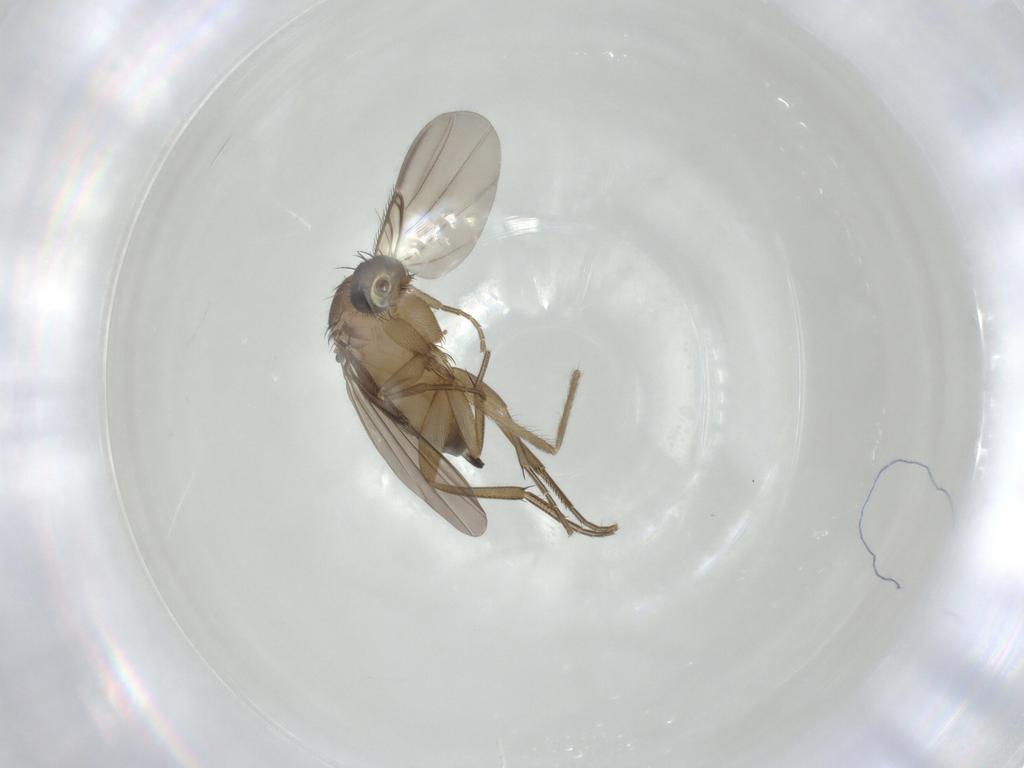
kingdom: Animalia
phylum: Arthropoda
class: Insecta
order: Diptera
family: Chironomidae
